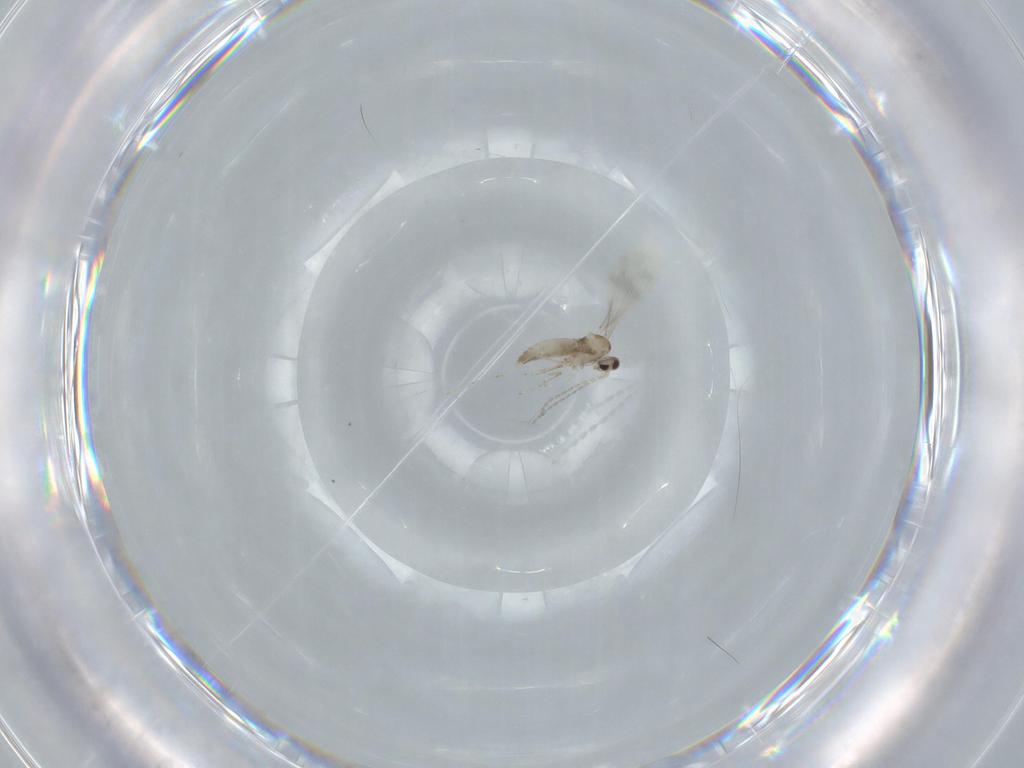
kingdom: Animalia
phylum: Arthropoda
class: Insecta
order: Diptera
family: Cecidomyiidae
